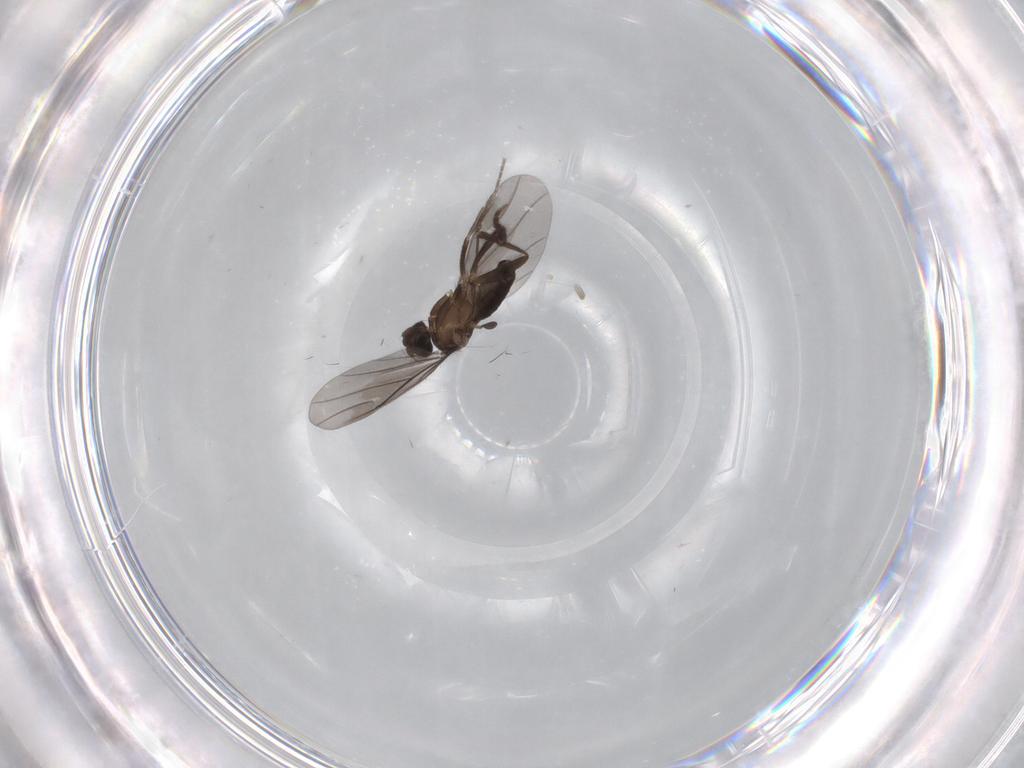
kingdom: Animalia
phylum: Arthropoda
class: Insecta
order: Diptera
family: Phoridae
